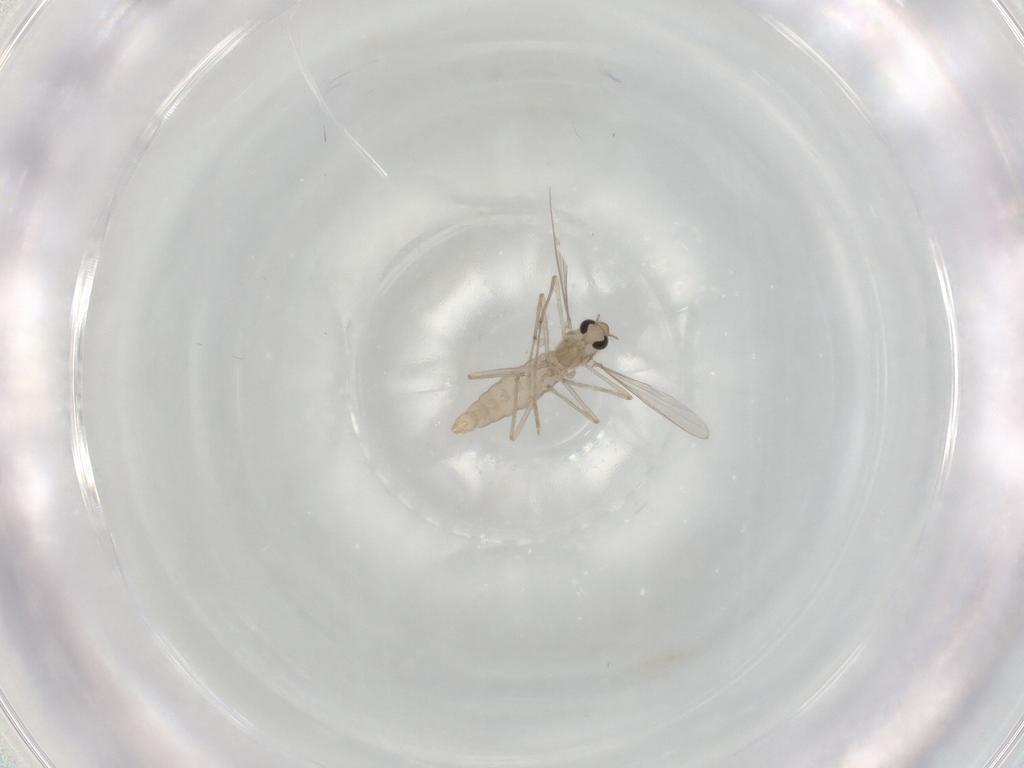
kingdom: Animalia
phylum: Arthropoda
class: Insecta
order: Diptera
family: Chironomidae
